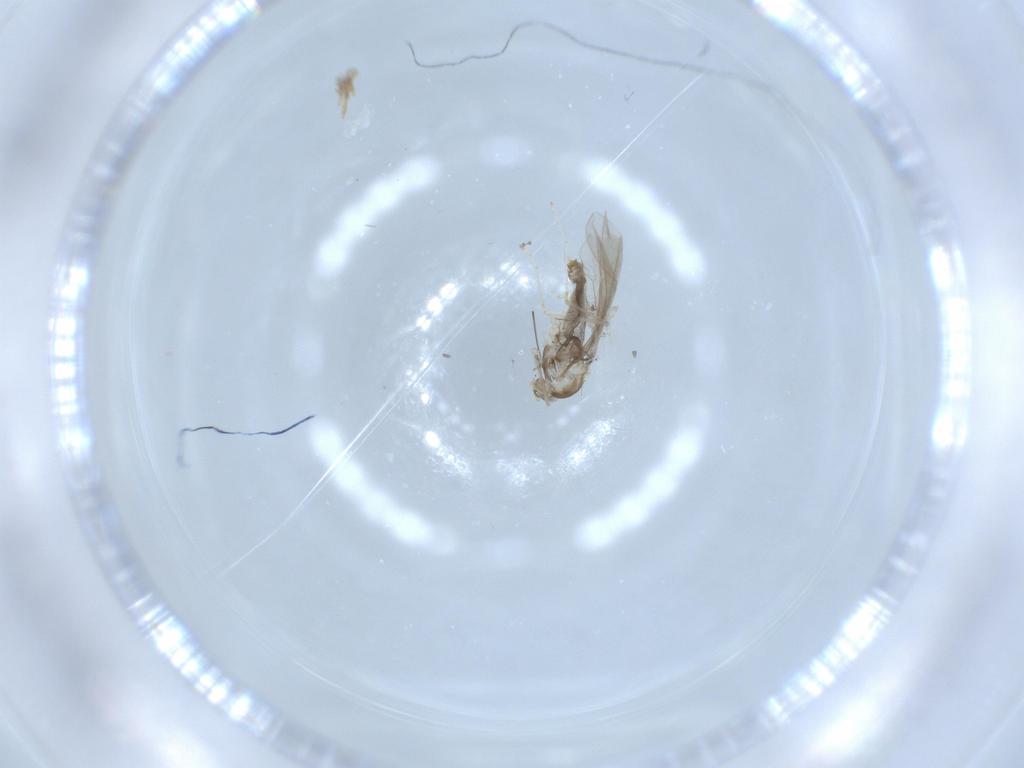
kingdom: Animalia
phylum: Arthropoda
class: Insecta
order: Diptera
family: Cecidomyiidae
